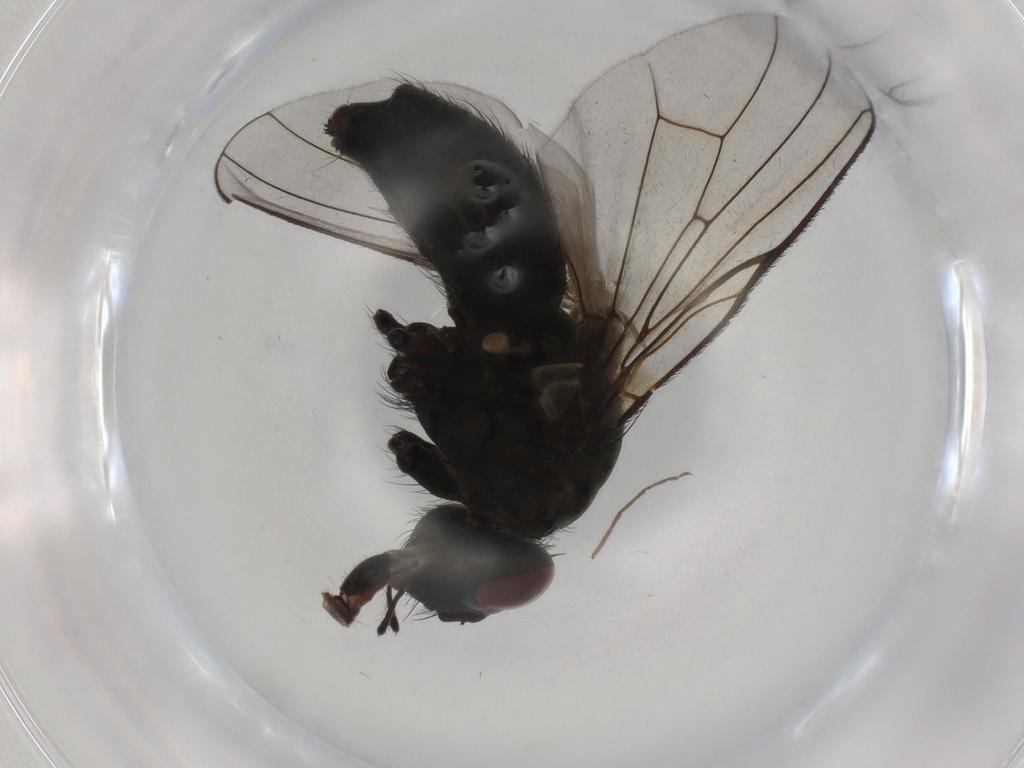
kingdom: Animalia
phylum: Arthropoda
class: Insecta
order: Diptera
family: Muscidae
